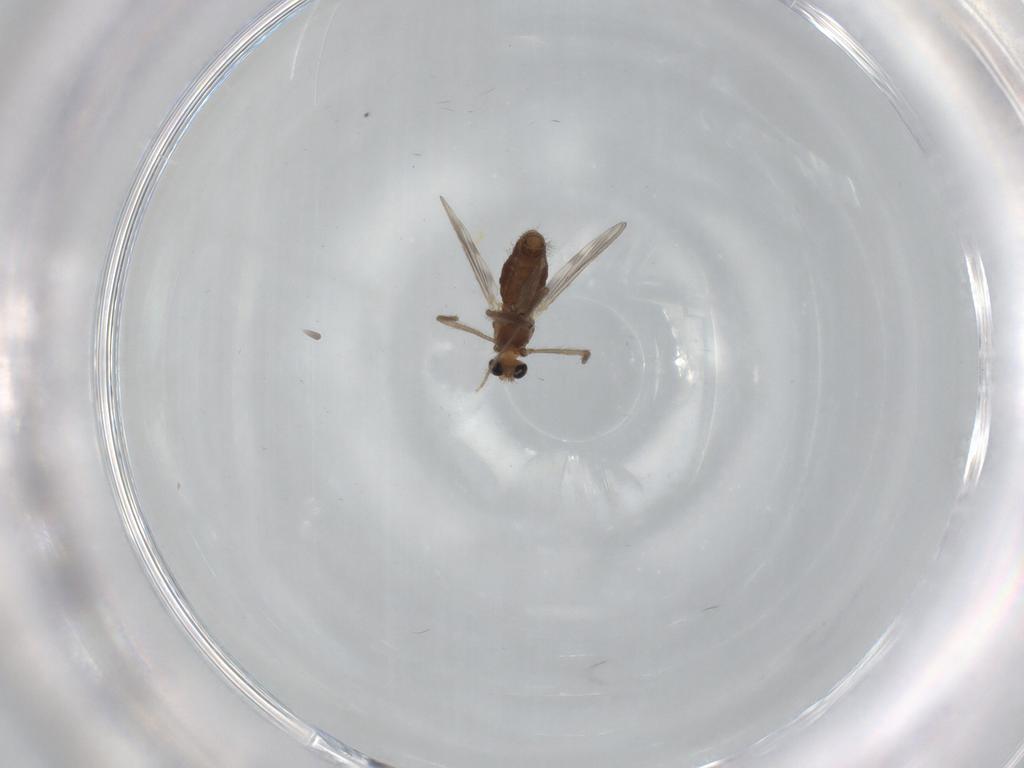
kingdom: Animalia
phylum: Arthropoda
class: Insecta
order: Diptera
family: Chironomidae
